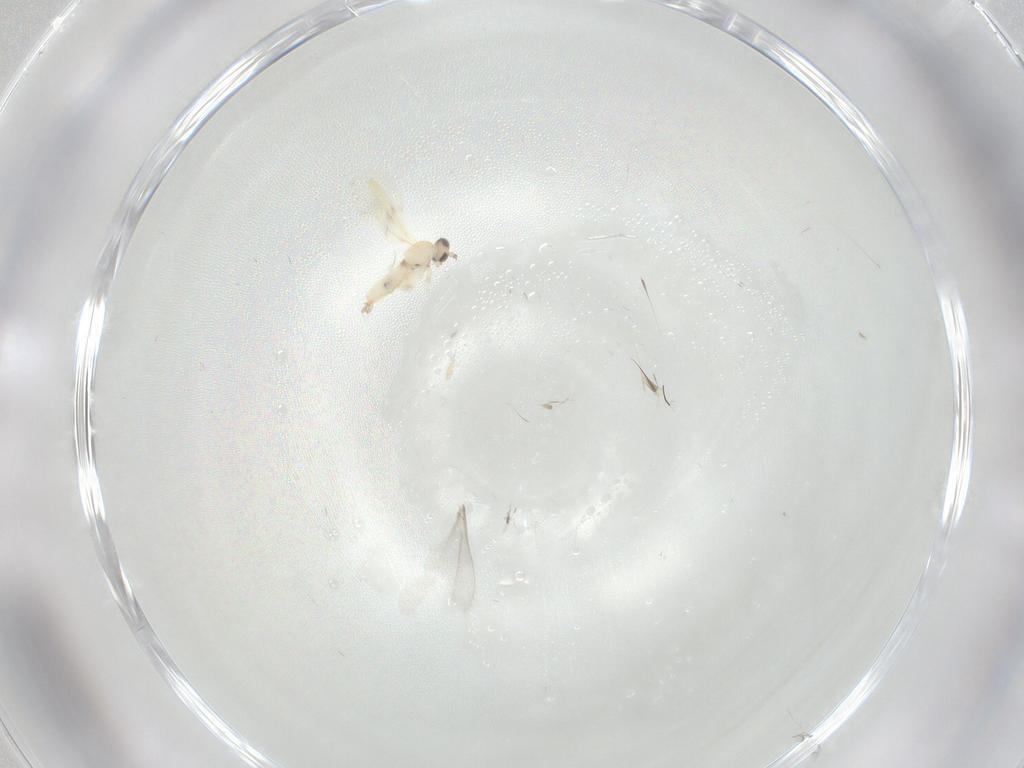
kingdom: Animalia
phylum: Arthropoda
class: Insecta
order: Diptera
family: Cecidomyiidae
